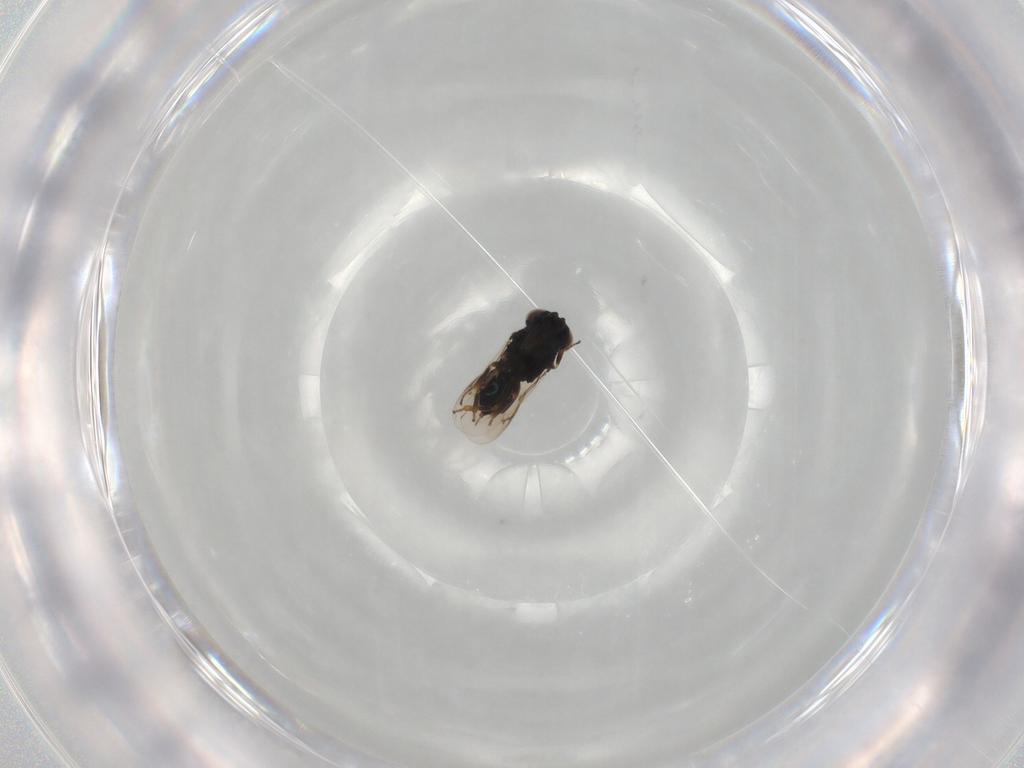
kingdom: Animalia
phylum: Arthropoda
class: Insecta
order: Hymenoptera
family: Eunotidae
